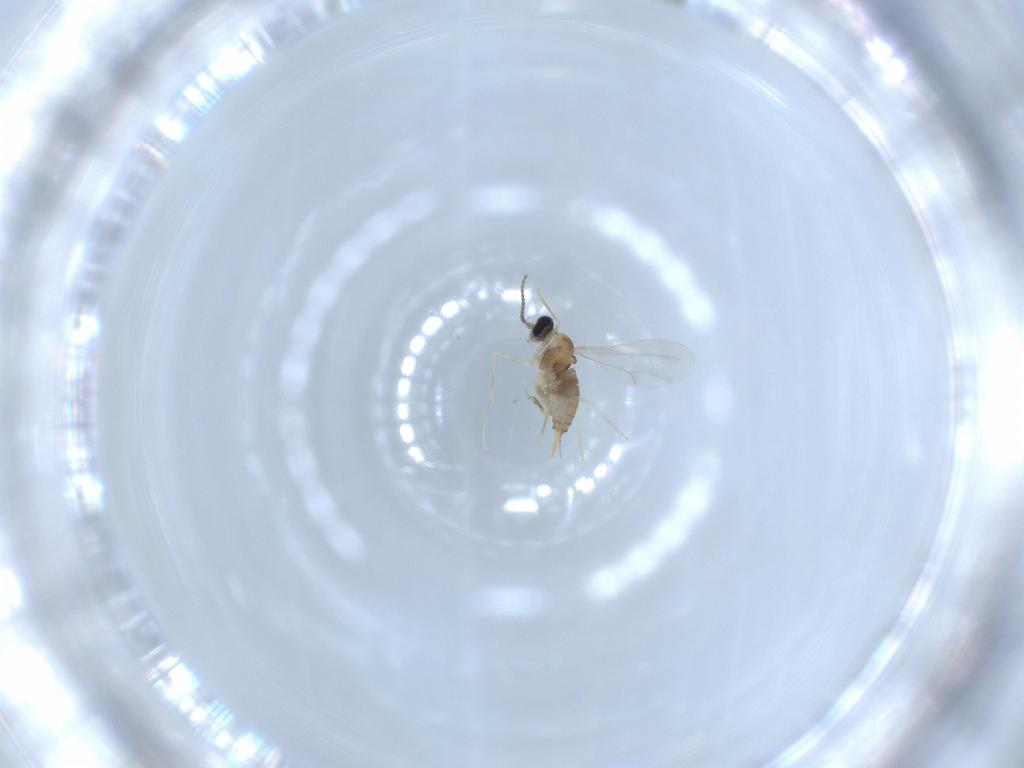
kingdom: Animalia
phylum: Arthropoda
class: Insecta
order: Diptera
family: Cecidomyiidae
